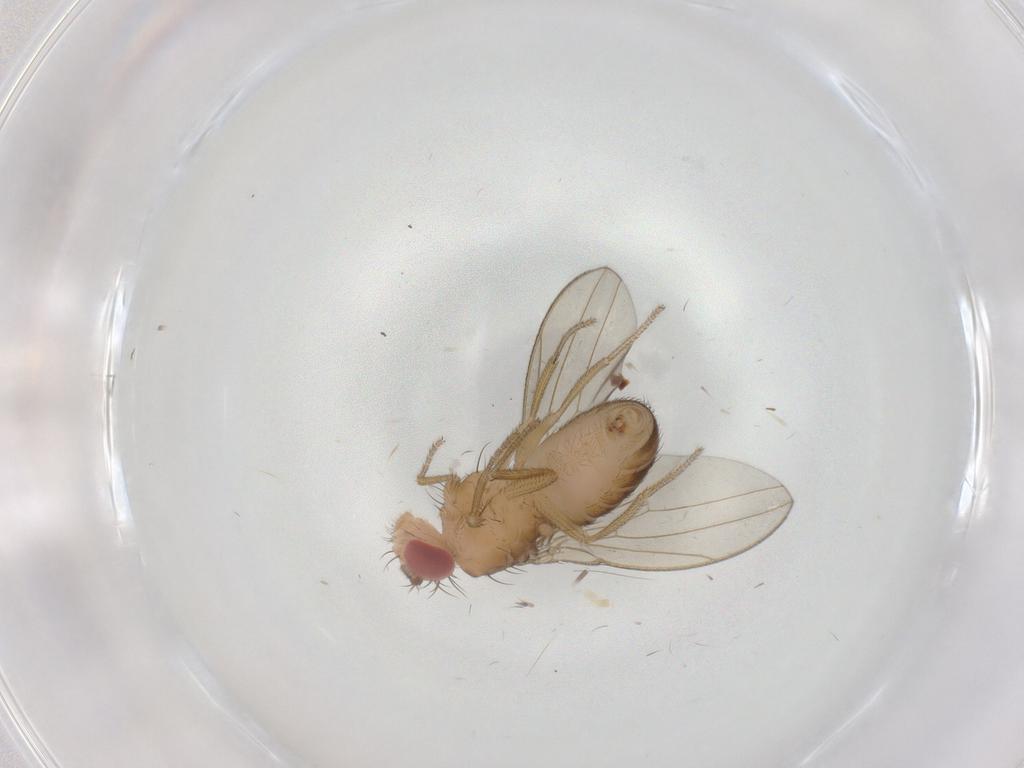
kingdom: Animalia
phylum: Arthropoda
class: Insecta
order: Diptera
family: Drosophilidae
